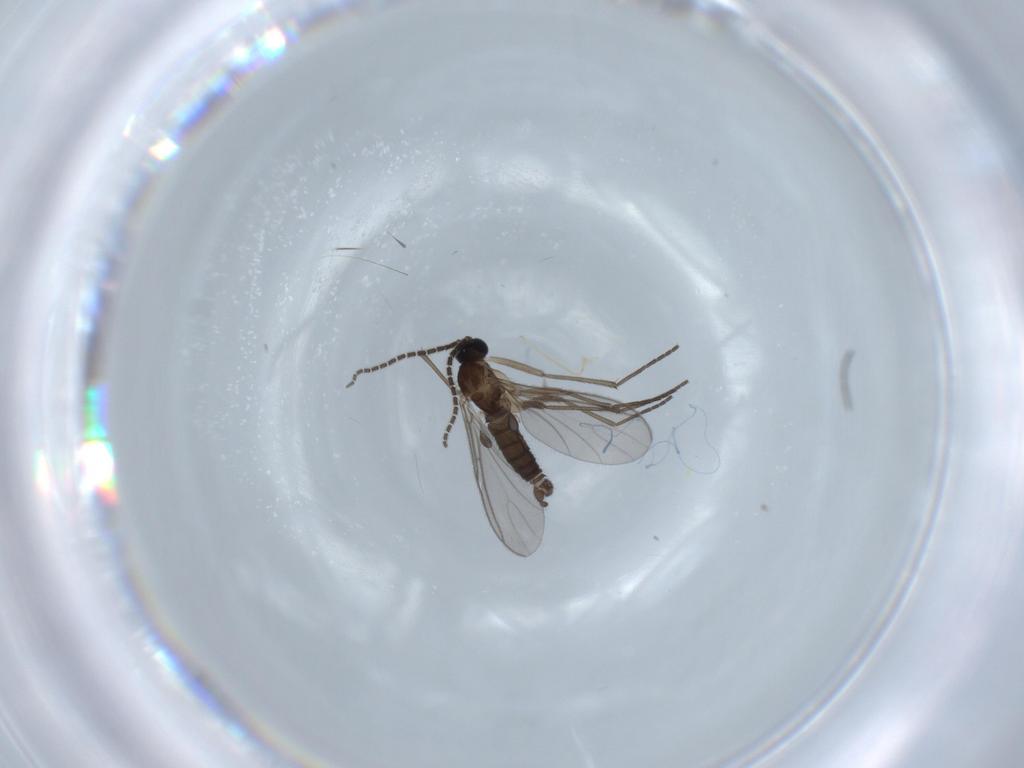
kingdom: Animalia
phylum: Arthropoda
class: Insecta
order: Diptera
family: Sciaridae
